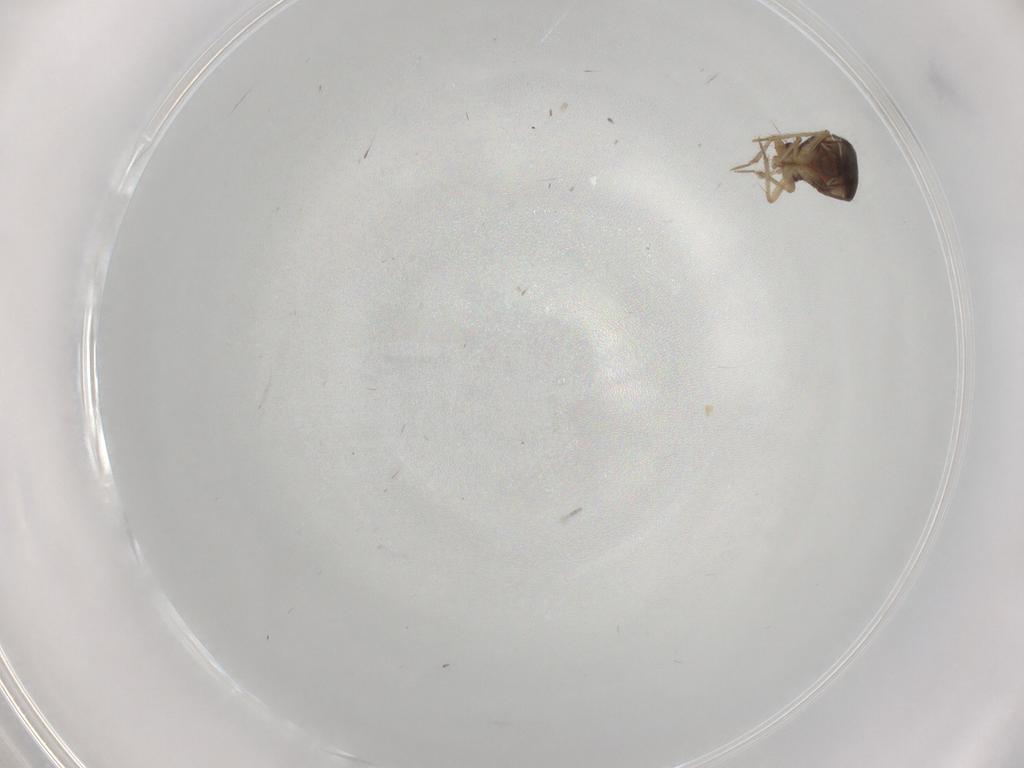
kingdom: Animalia
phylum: Arthropoda
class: Insecta
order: Hemiptera
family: Ceratocombidae
